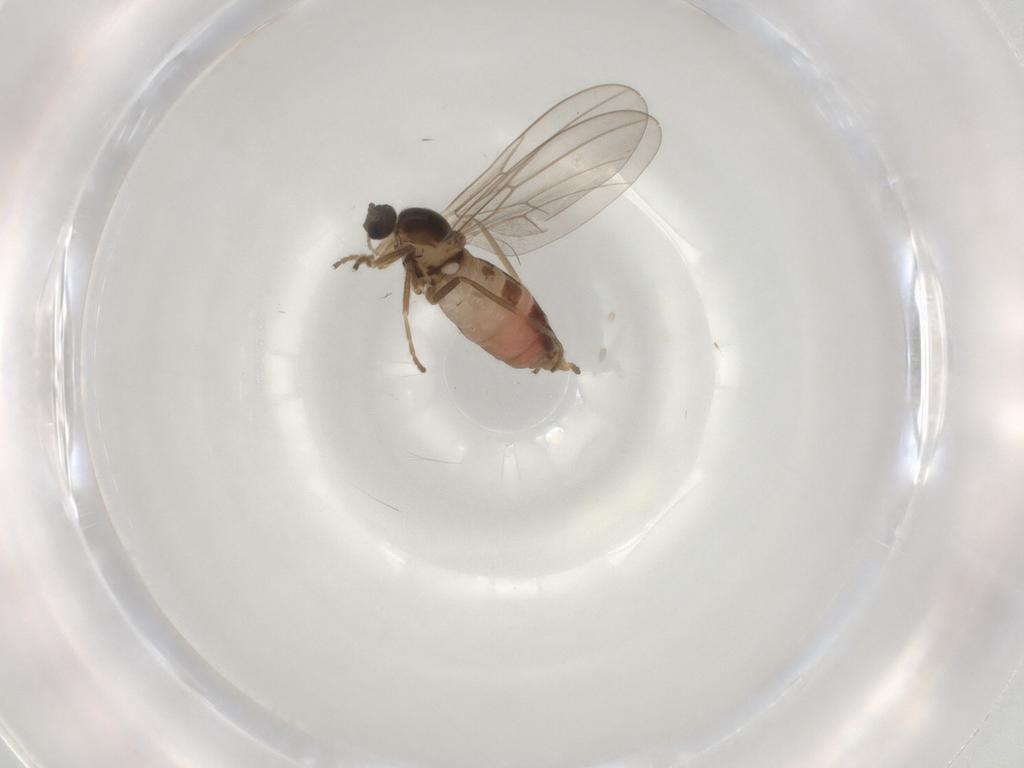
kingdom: Animalia
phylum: Arthropoda
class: Insecta
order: Diptera
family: Cecidomyiidae
